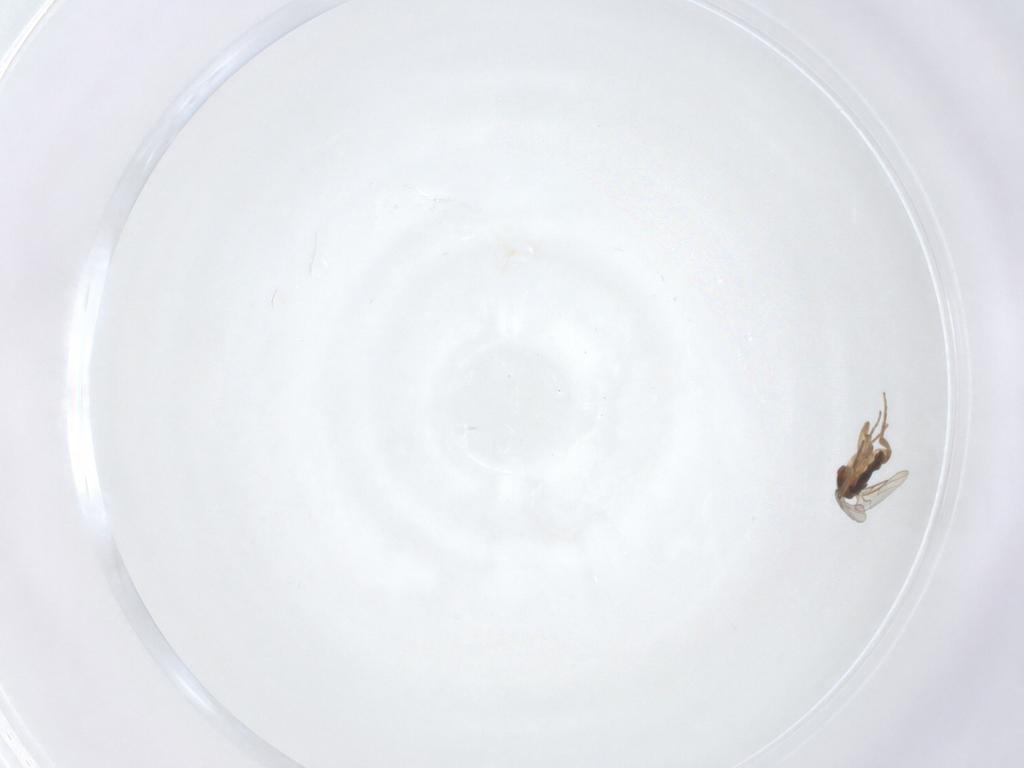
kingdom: Animalia
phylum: Arthropoda
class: Insecta
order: Diptera
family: Phoridae
